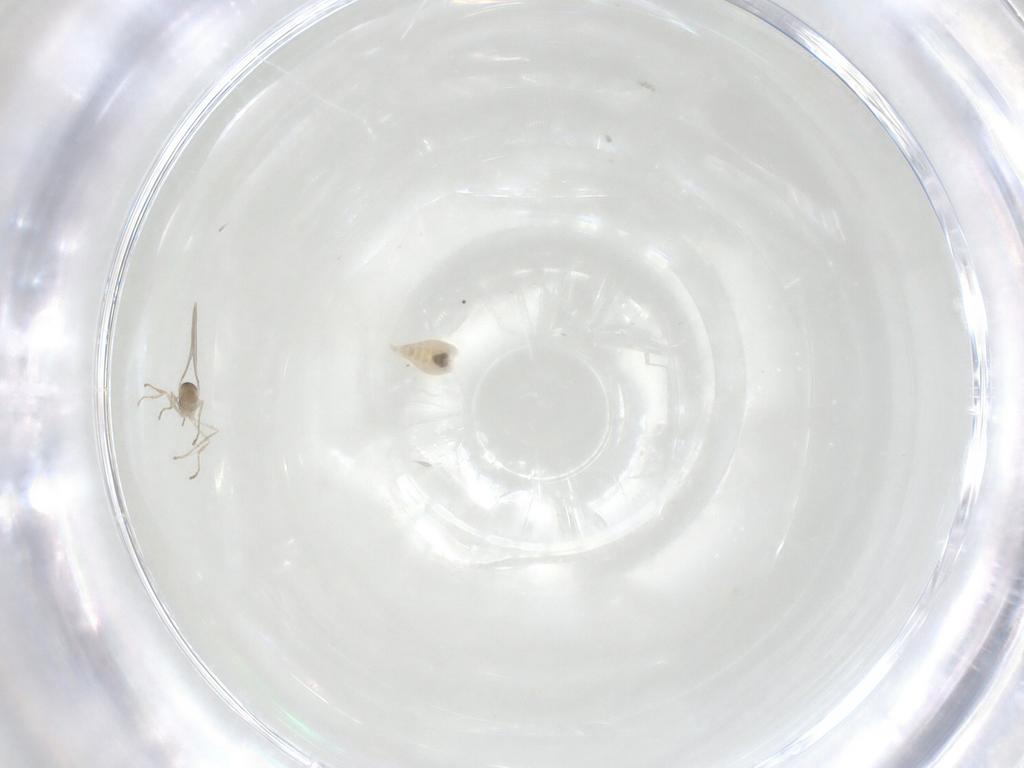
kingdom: Animalia
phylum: Arthropoda
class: Insecta
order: Diptera
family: Cecidomyiidae
